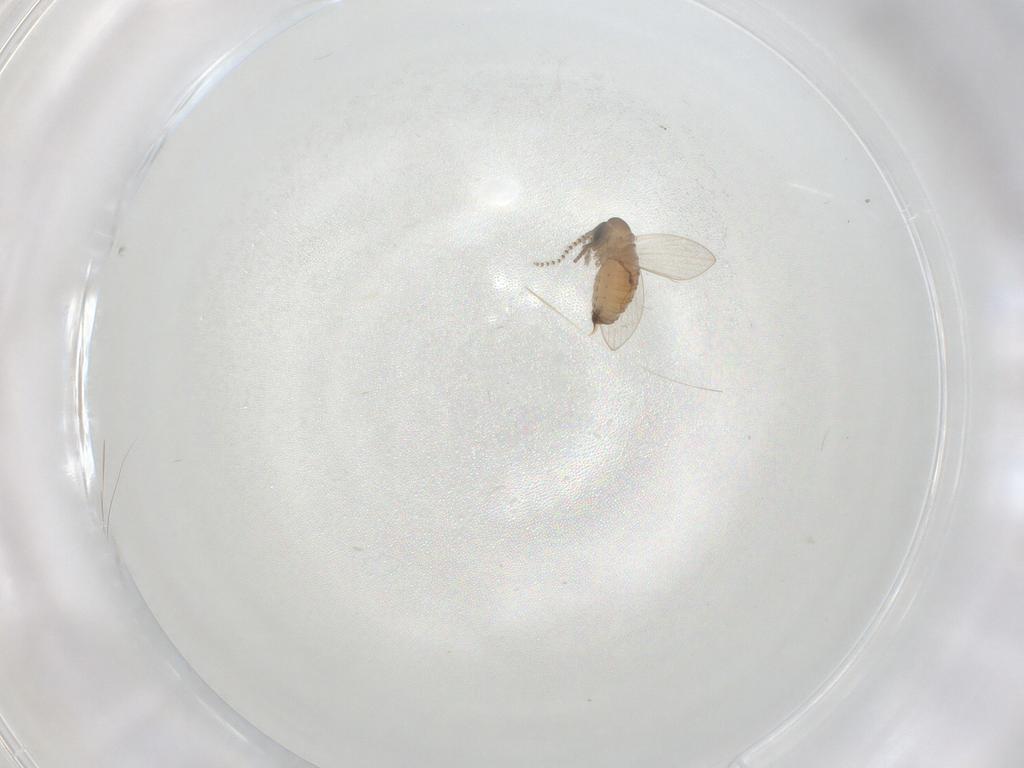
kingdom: Animalia
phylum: Arthropoda
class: Insecta
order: Diptera
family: Psychodidae
